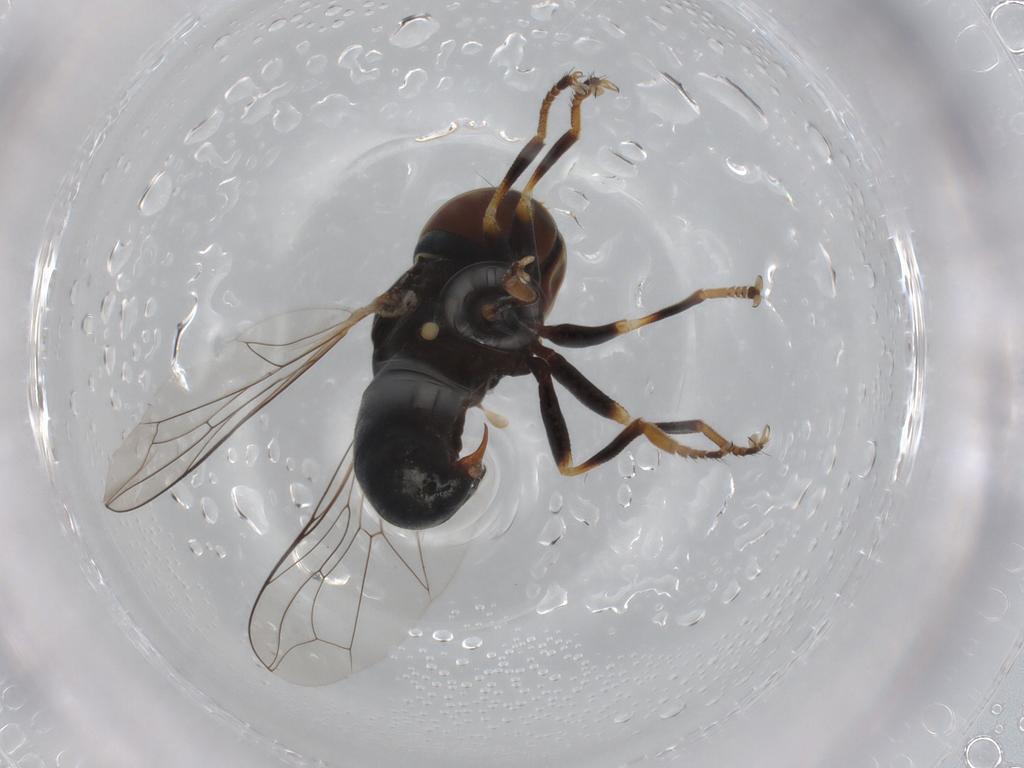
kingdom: Animalia
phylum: Arthropoda
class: Insecta
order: Diptera
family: Pipunculidae
